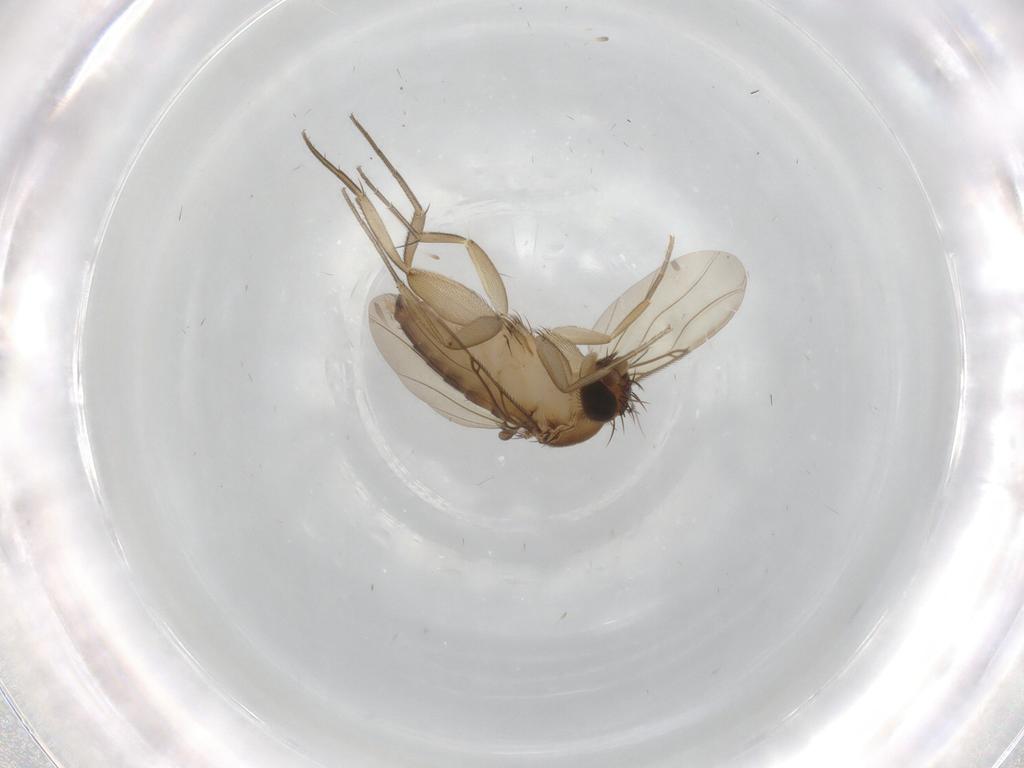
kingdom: Animalia
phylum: Arthropoda
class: Insecta
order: Diptera
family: Phoridae
